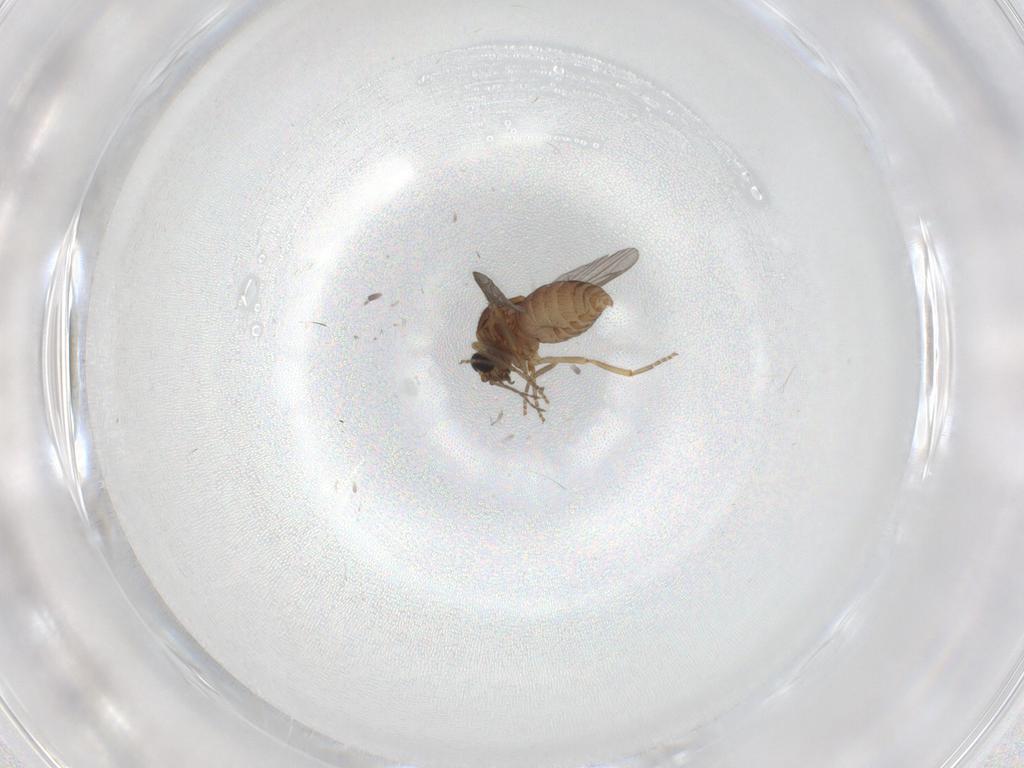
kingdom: Animalia
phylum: Arthropoda
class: Insecta
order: Diptera
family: Ceratopogonidae
